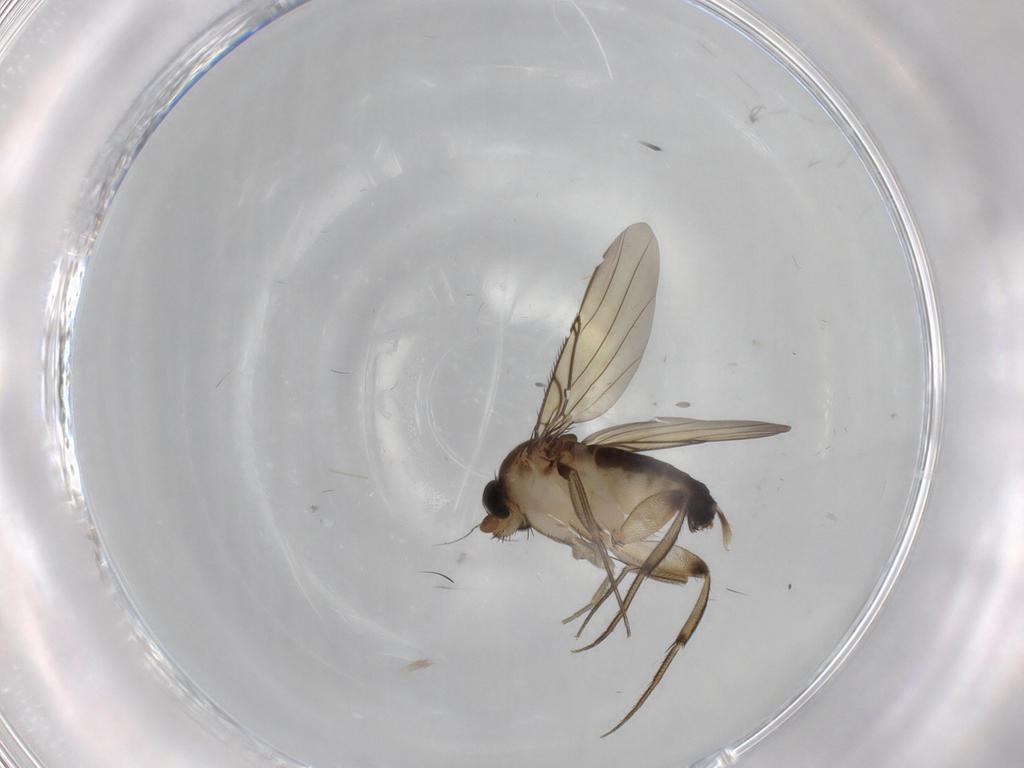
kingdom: Animalia
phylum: Arthropoda
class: Insecta
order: Diptera
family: Phoridae
